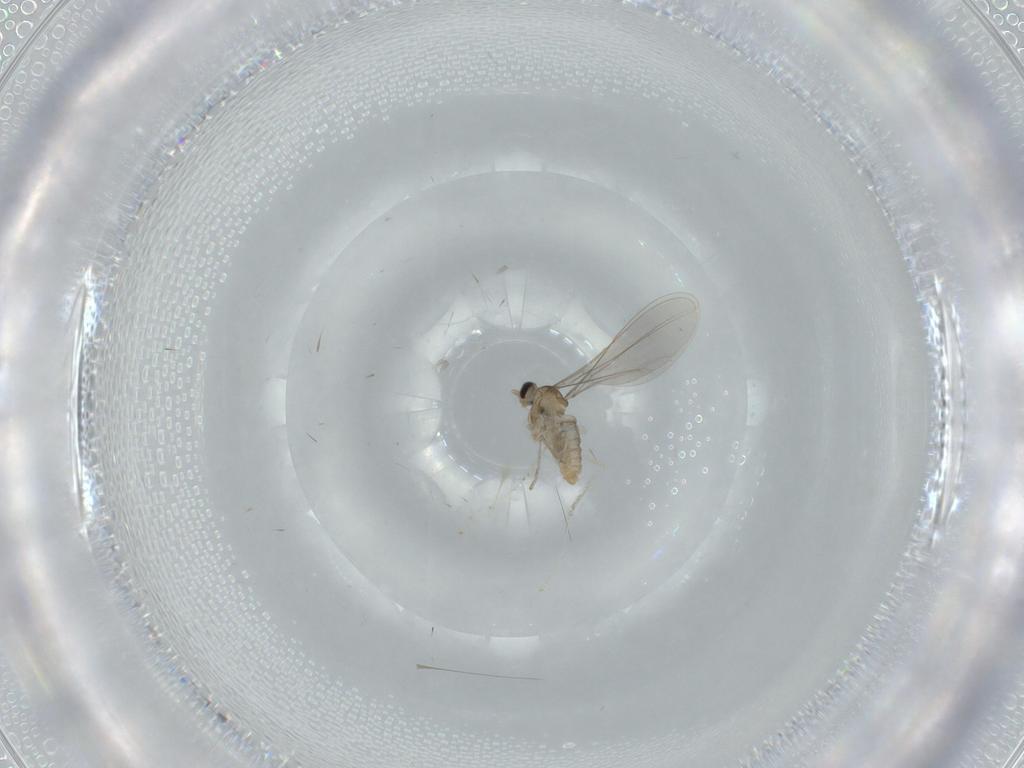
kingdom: Animalia
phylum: Arthropoda
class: Insecta
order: Diptera
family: Cecidomyiidae
